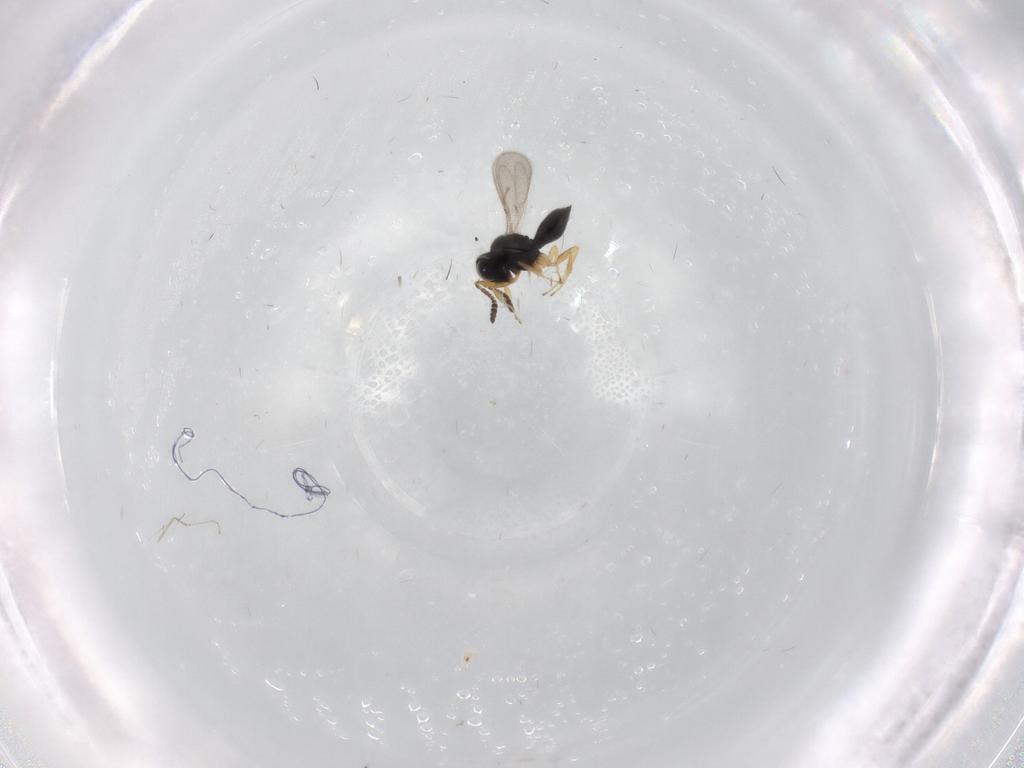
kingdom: Animalia
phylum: Arthropoda
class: Insecta
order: Hymenoptera
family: Scelionidae
